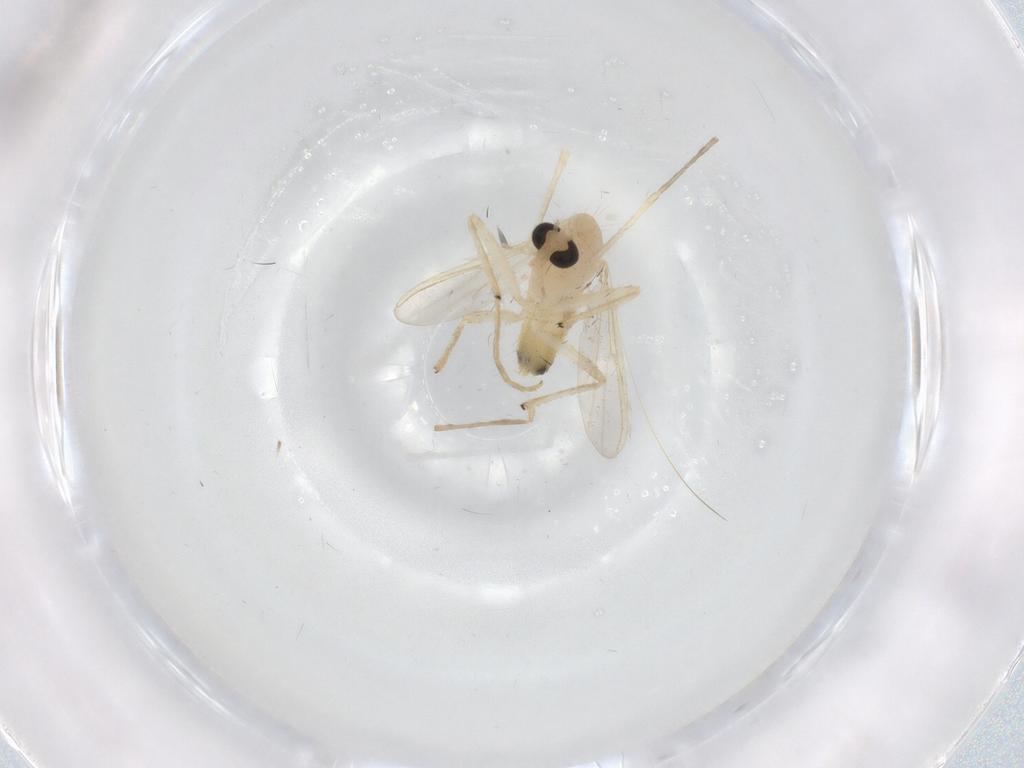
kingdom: Animalia
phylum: Arthropoda
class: Insecta
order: Diptera
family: Chironomidae
